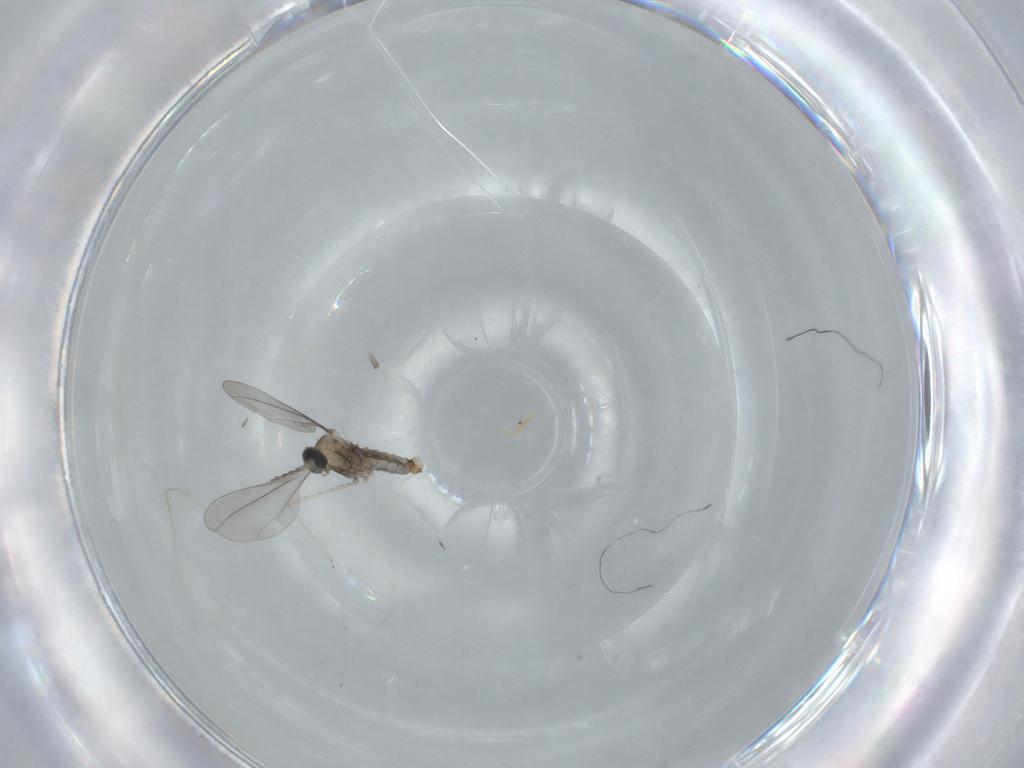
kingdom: Animalia
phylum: Arthropoda
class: Insecta
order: Diptera
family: Cecidomyiidae
